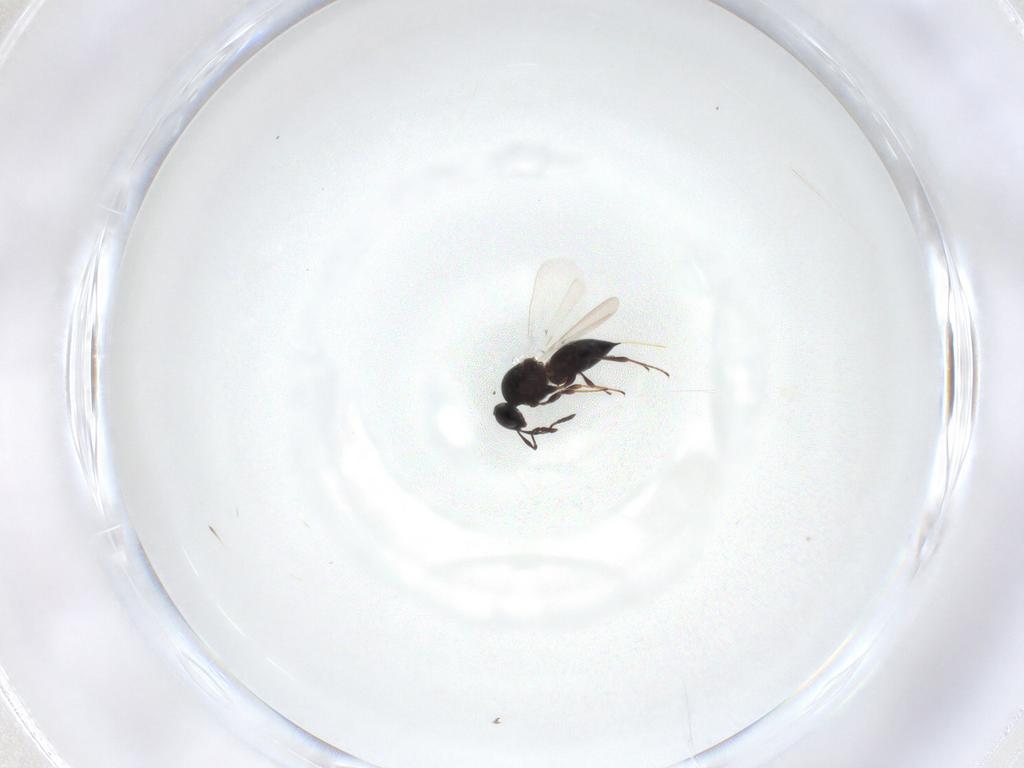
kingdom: Animalia
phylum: Arthropoda
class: Insecta
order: Hymenoptera
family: Platygastridae
